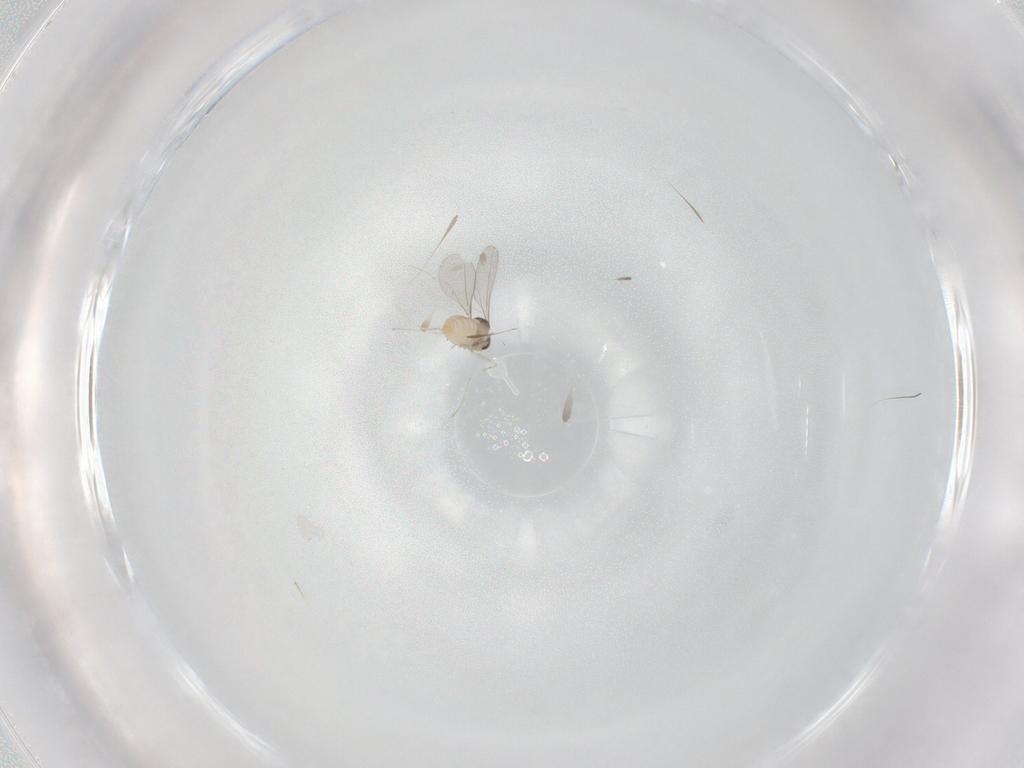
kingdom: Animalia
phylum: Arthropoda
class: Insecta
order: Diptera
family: Cecidomyiidae
